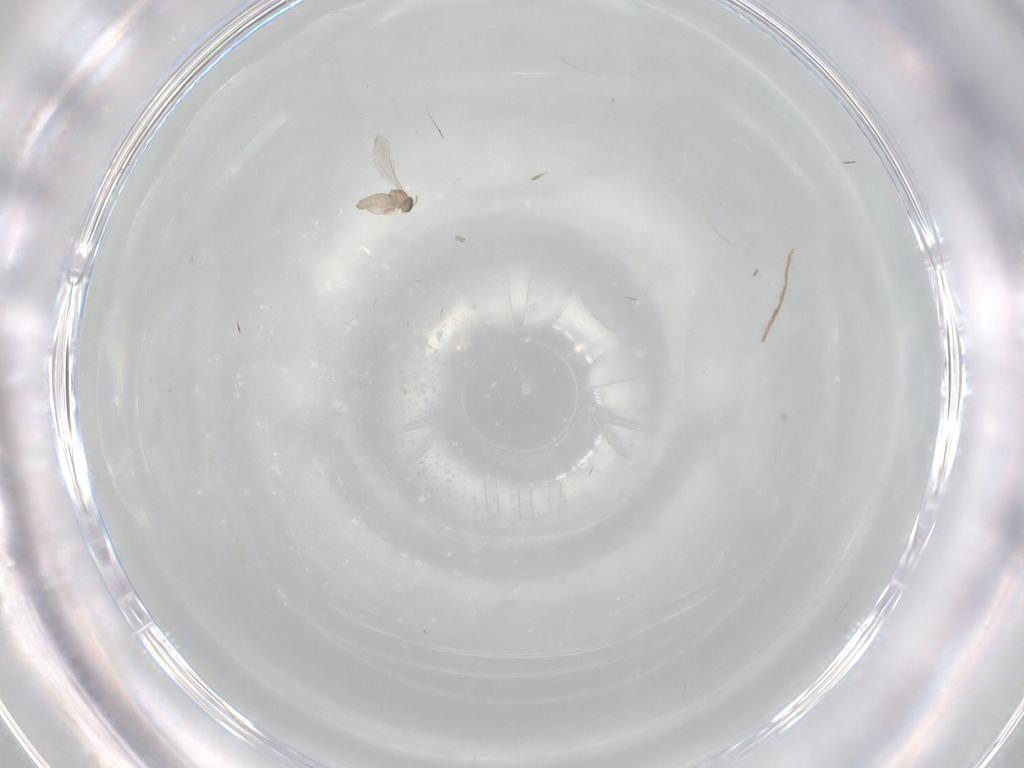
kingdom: Animalia
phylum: Arthropoda
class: Insecta
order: Diptera
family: Cecidomyiidae
